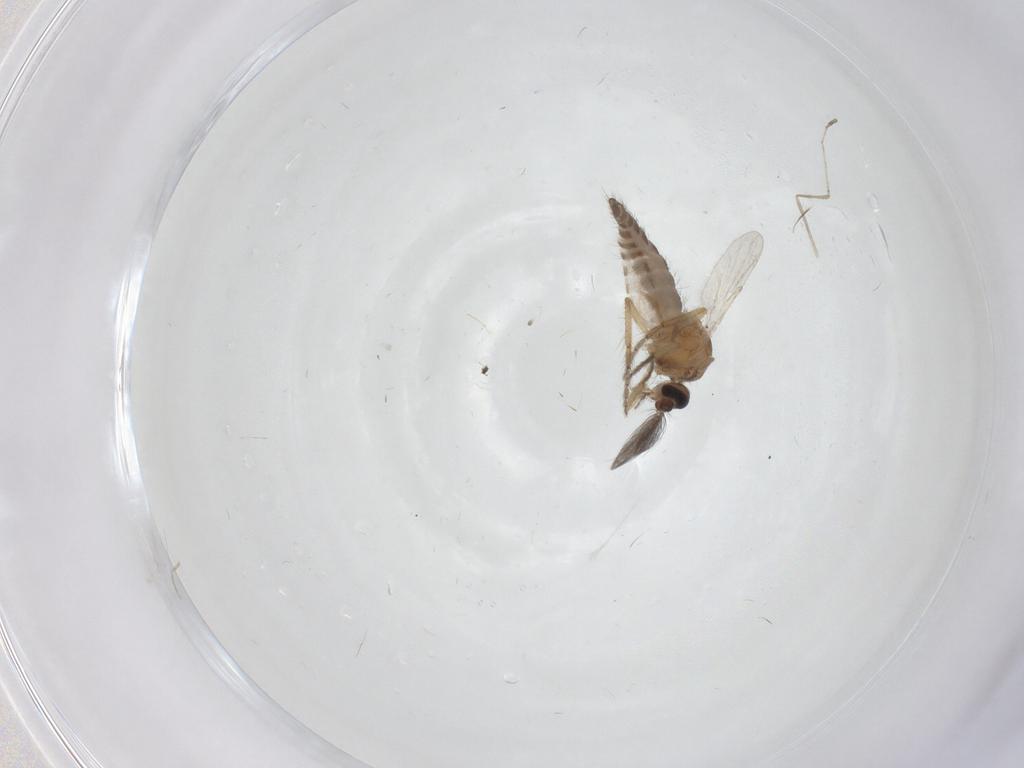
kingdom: Animalia
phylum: Arthropoda
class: Insecta
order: Diptera
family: Ceratopogonidae
